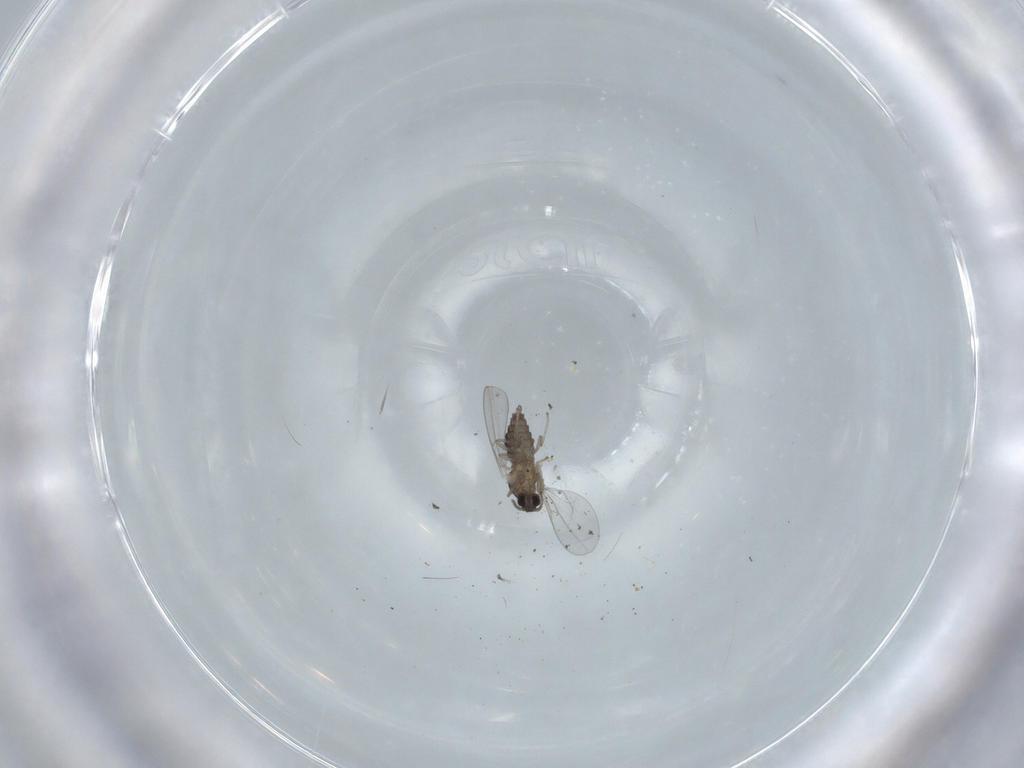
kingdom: Animalia
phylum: Arthropoda
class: Insecta
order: Diptera
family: Cecidomyiidae
